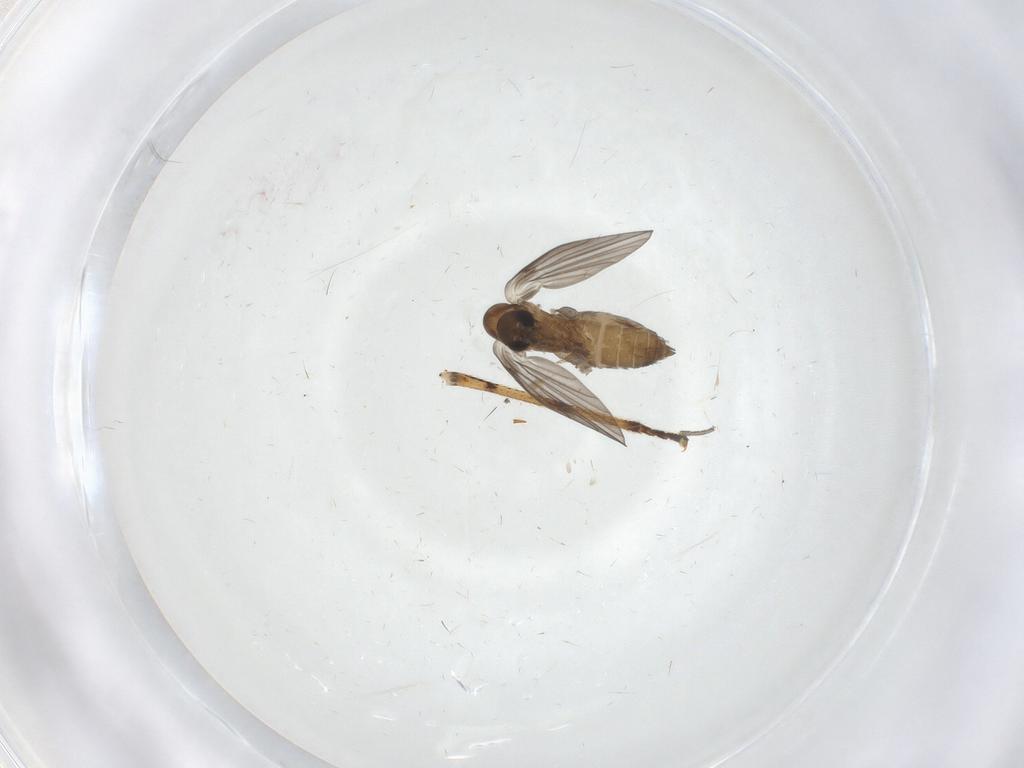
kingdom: Animalia
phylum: Arthropoda
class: Insecta
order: Diptera
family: Psychodidae
